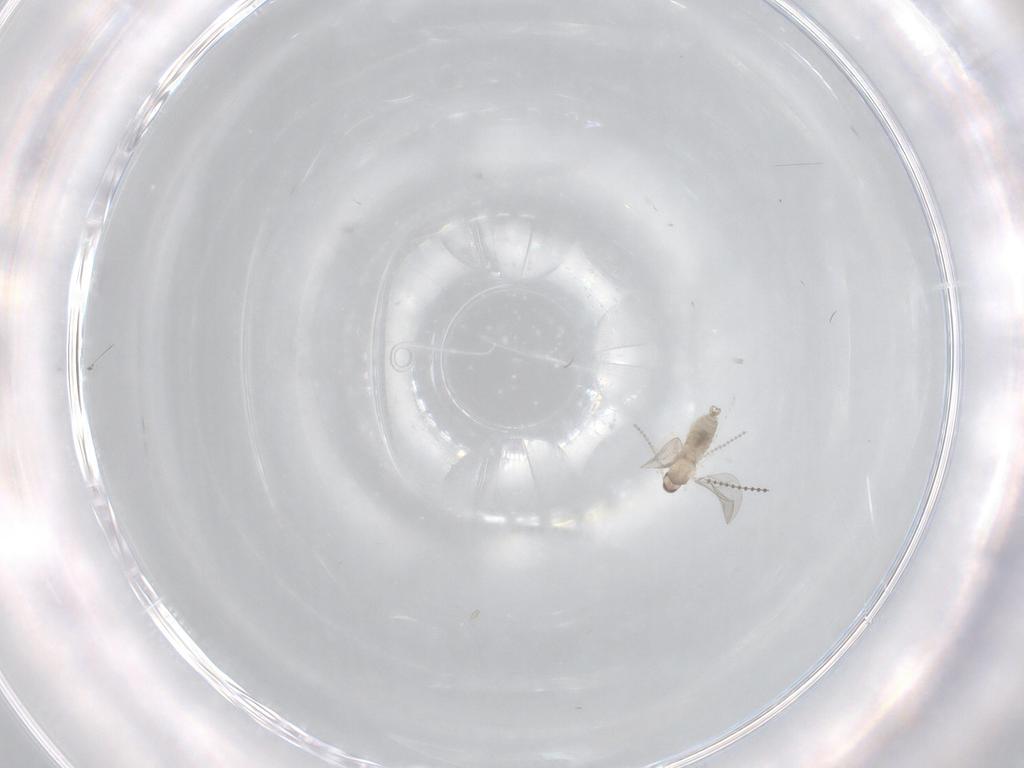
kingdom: Animalia
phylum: Arthropoda
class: Insecta
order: Diptera
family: Cecidomyiidae
